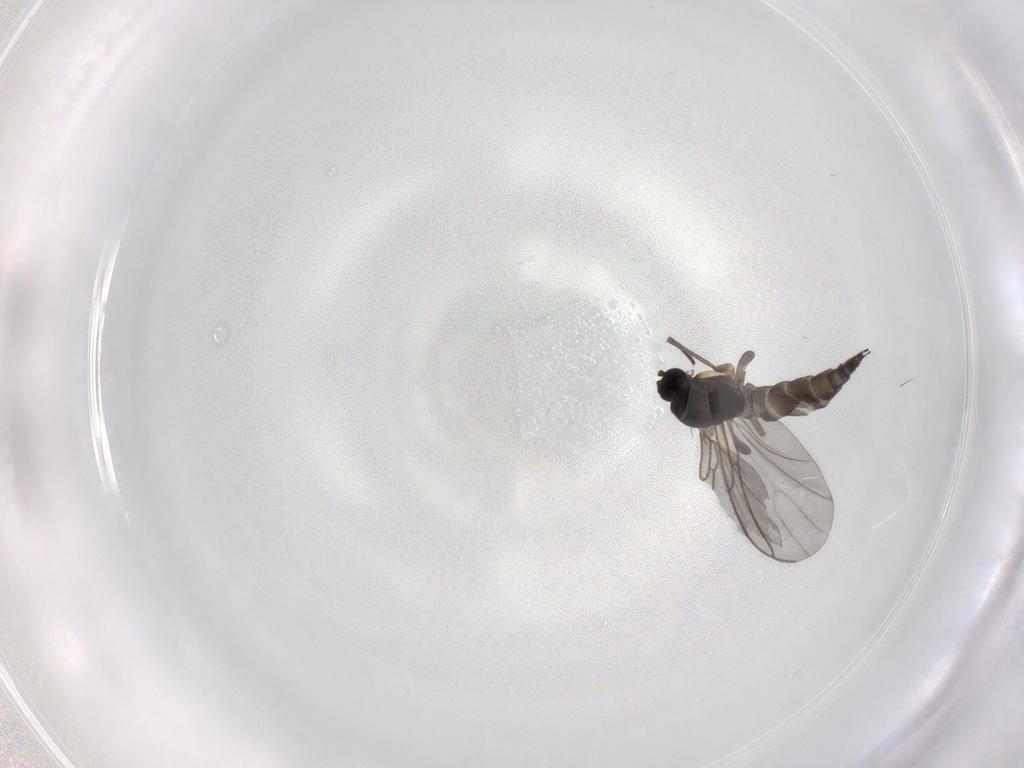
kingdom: Animalia
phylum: Arthropoda
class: Insecta
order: Diptera
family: Sciaridae
